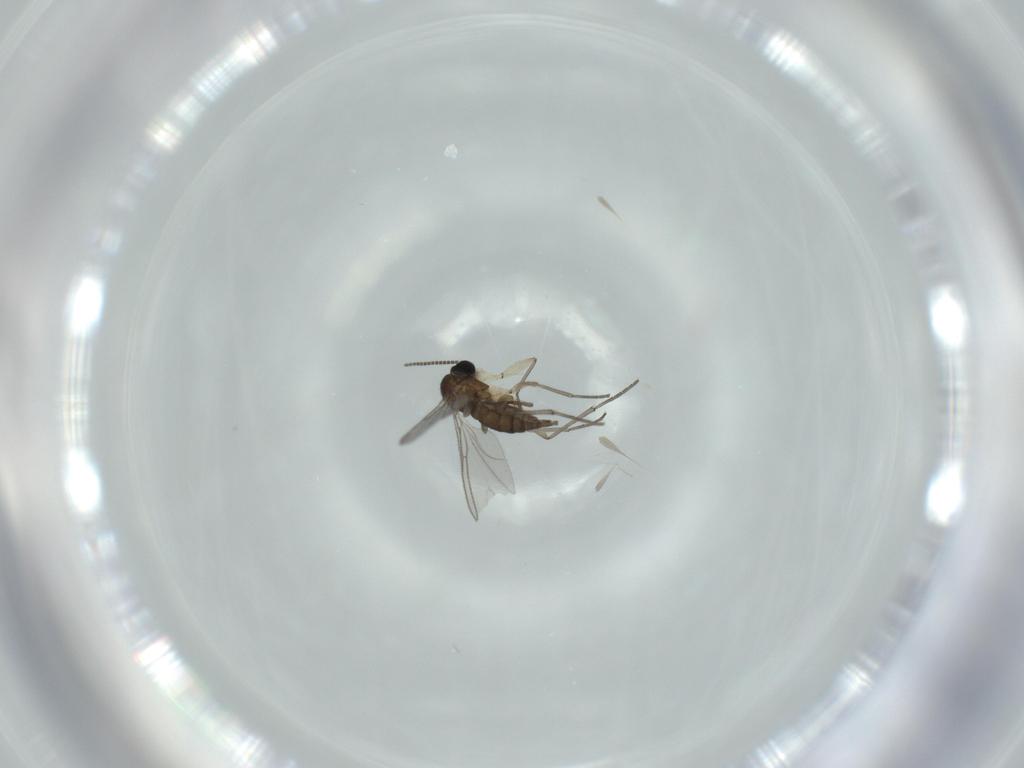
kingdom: Animalia
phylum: Arthropoda
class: Insecta
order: Diptera
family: Sciaridae
